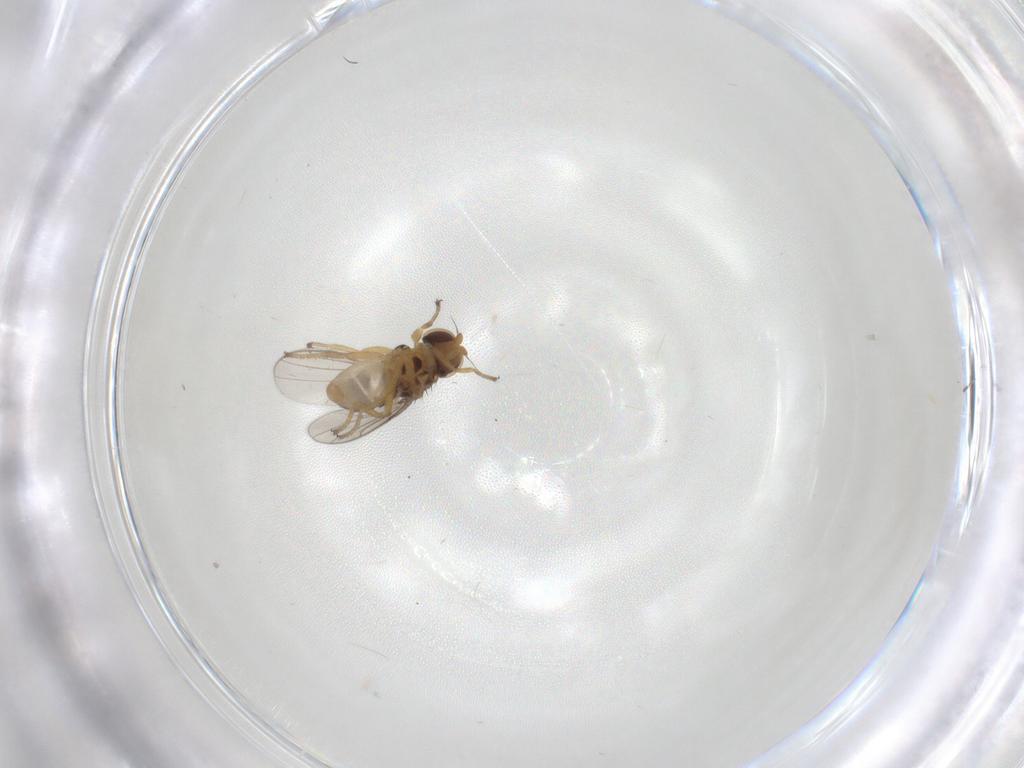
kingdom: Animalia
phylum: Arthropoda
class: Insecta
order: Diptera
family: Chloropidae
